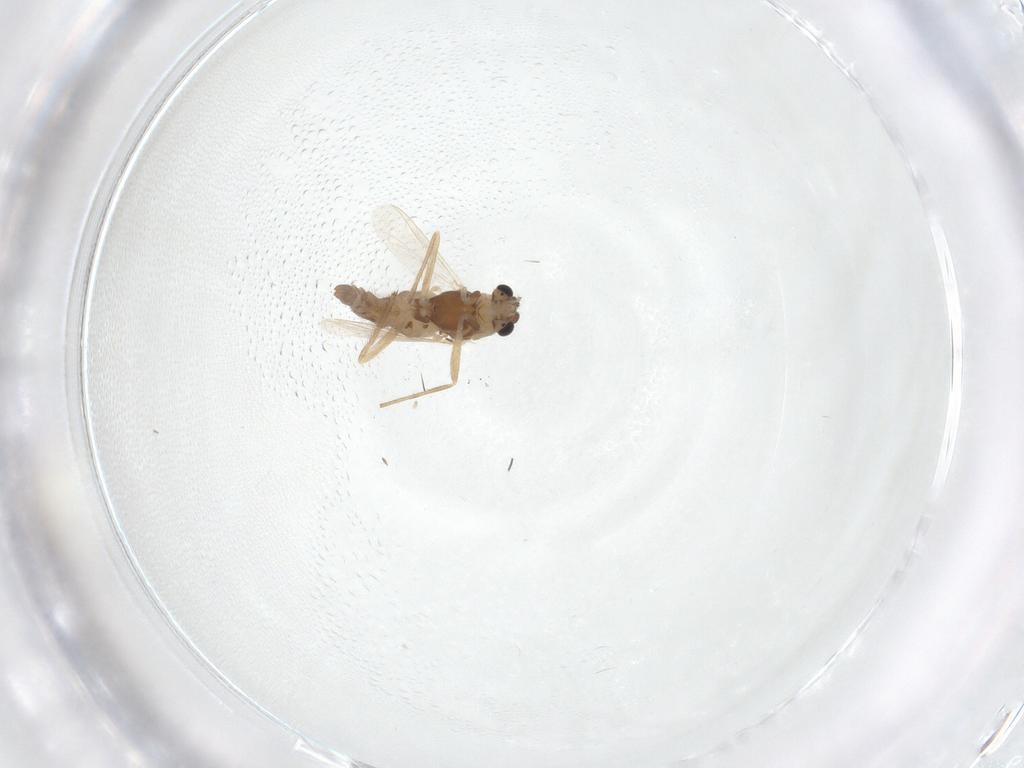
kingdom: Animalia
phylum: Arthropoda
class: Insecta
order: Diptera
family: Chironomidae
